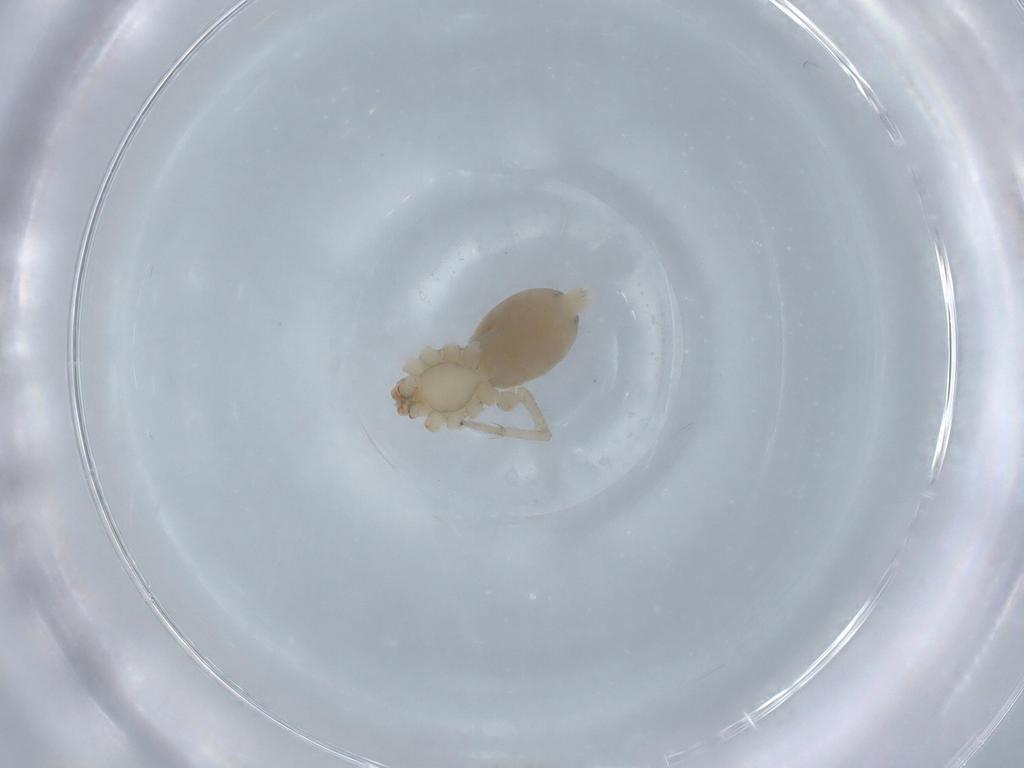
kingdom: Animalia
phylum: Arthropoda
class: Arachnida
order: Araneae
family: Gnaphosidae
